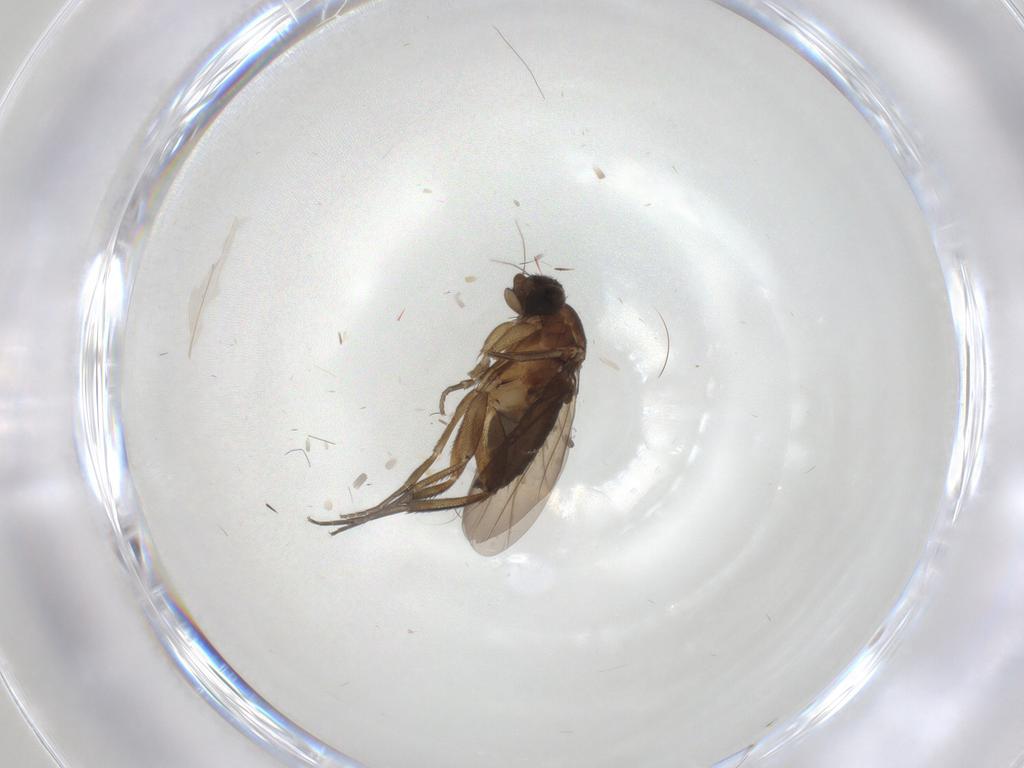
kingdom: Animalia
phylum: Arthropoda
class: Insecta
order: Diptera
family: Phoridae
